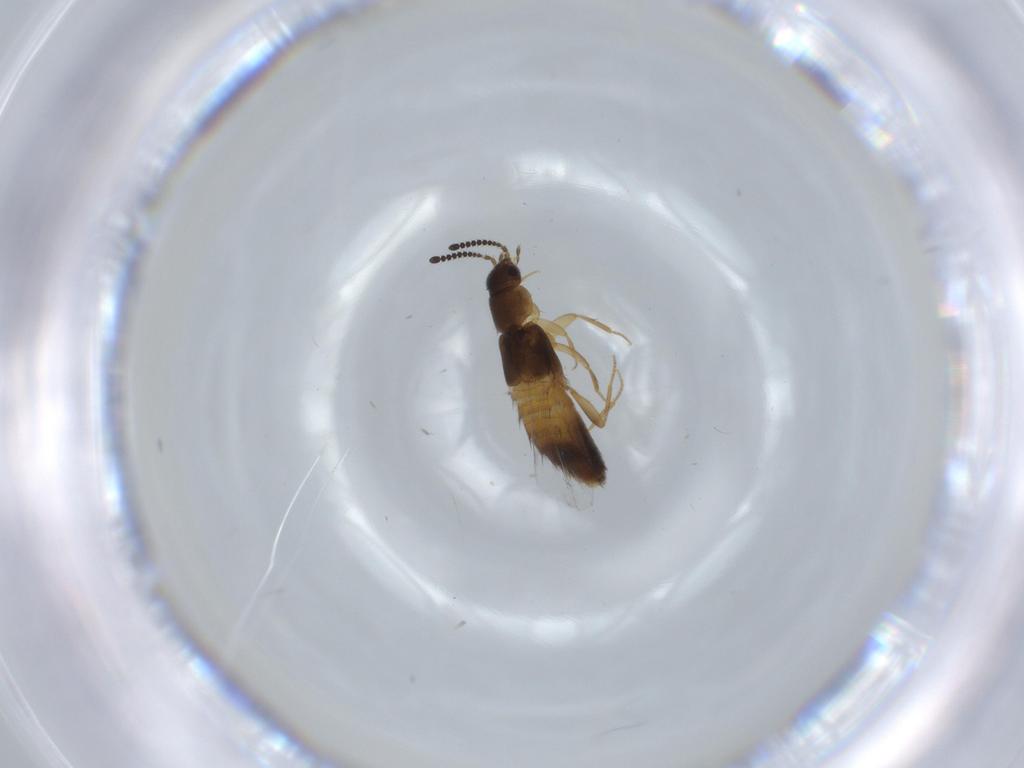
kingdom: Animalia
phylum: Arthropoda
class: Insecta
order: Coleoptera
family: Staphylinidae
